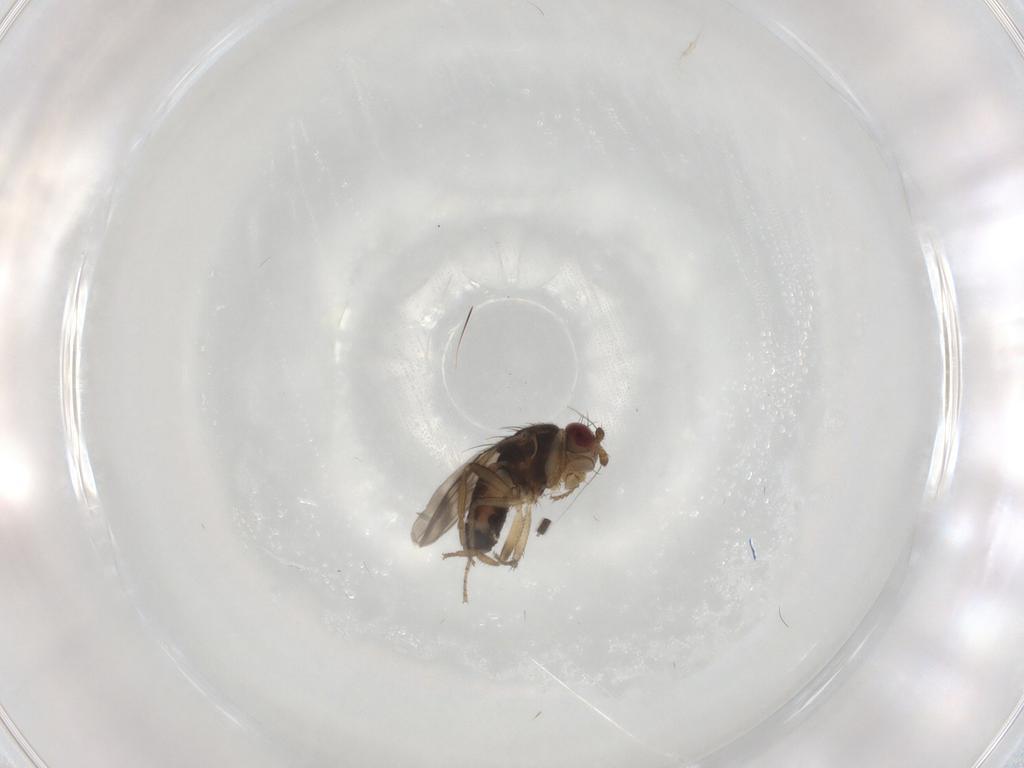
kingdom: Animalia
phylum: Arthropoda
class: Insecta
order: Diptera
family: Sphaeroceridae
